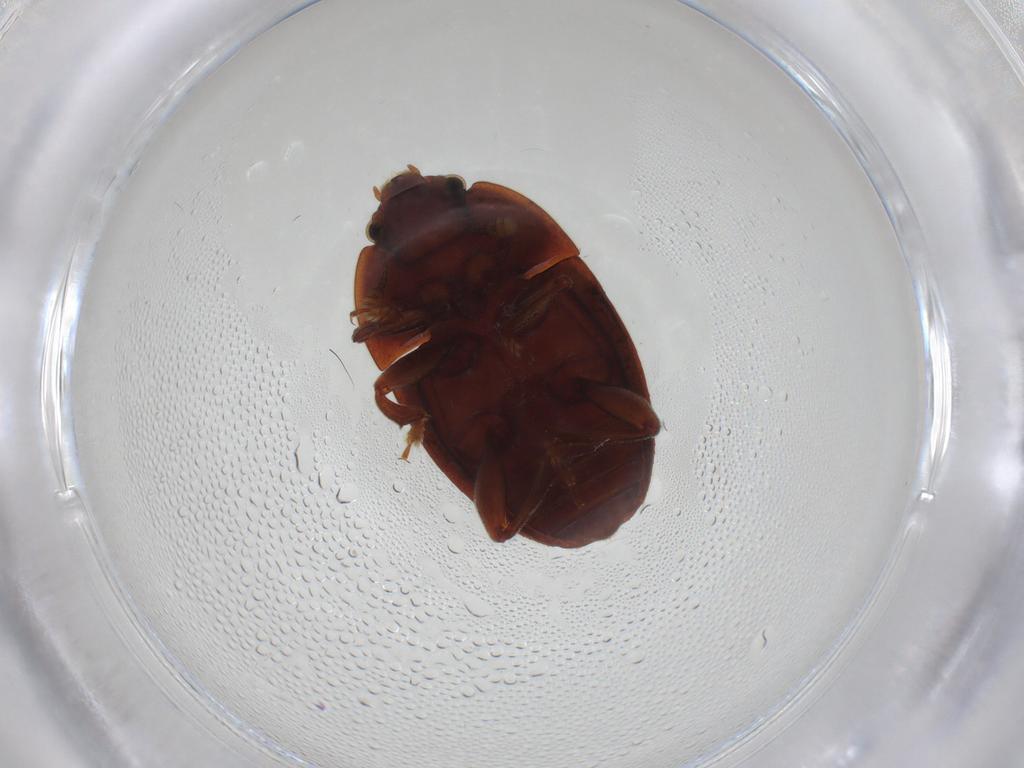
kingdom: Animalia
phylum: Arthropoda
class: Insecta
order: Coleoptera
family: Nitidulidae
